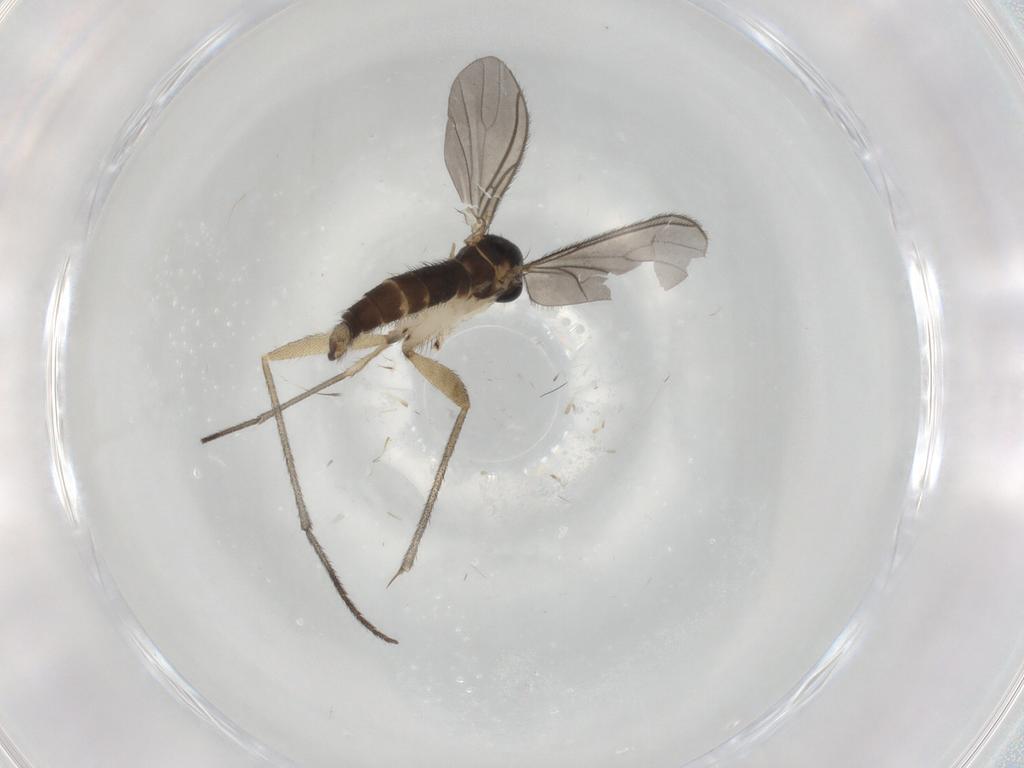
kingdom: Animalia
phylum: Arthropoda
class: Insecta
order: Diptera
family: Sciaridae
